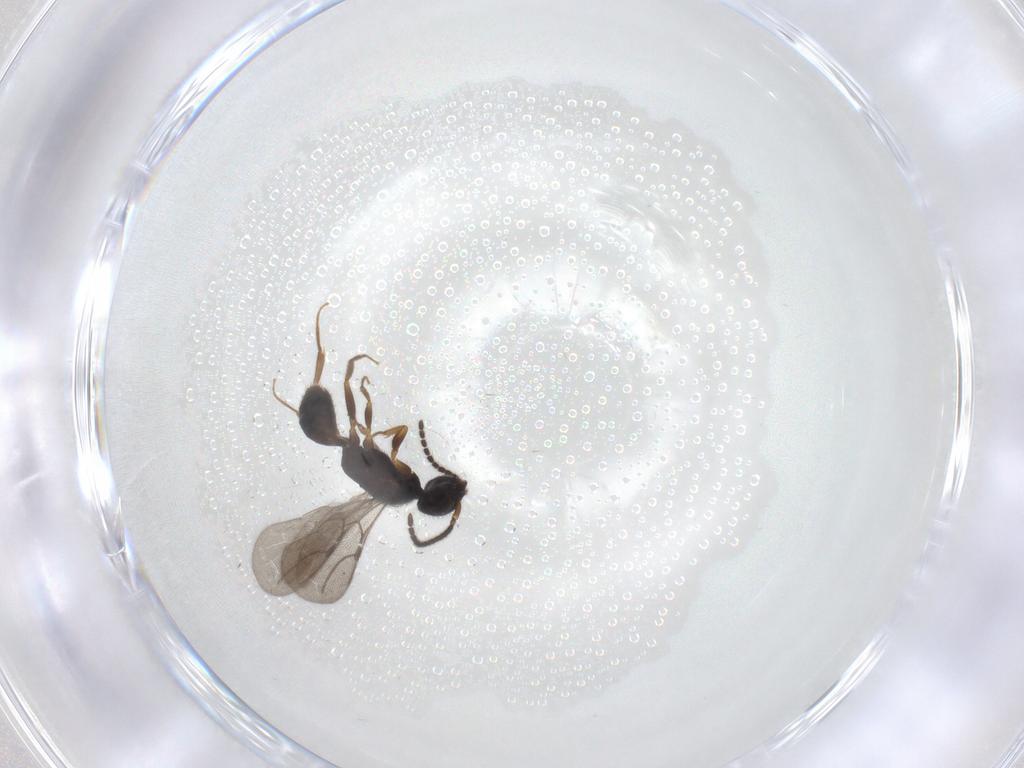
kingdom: Animalia
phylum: Arthropoda
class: Insecta
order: Hymenoptera
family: Bethylidae
